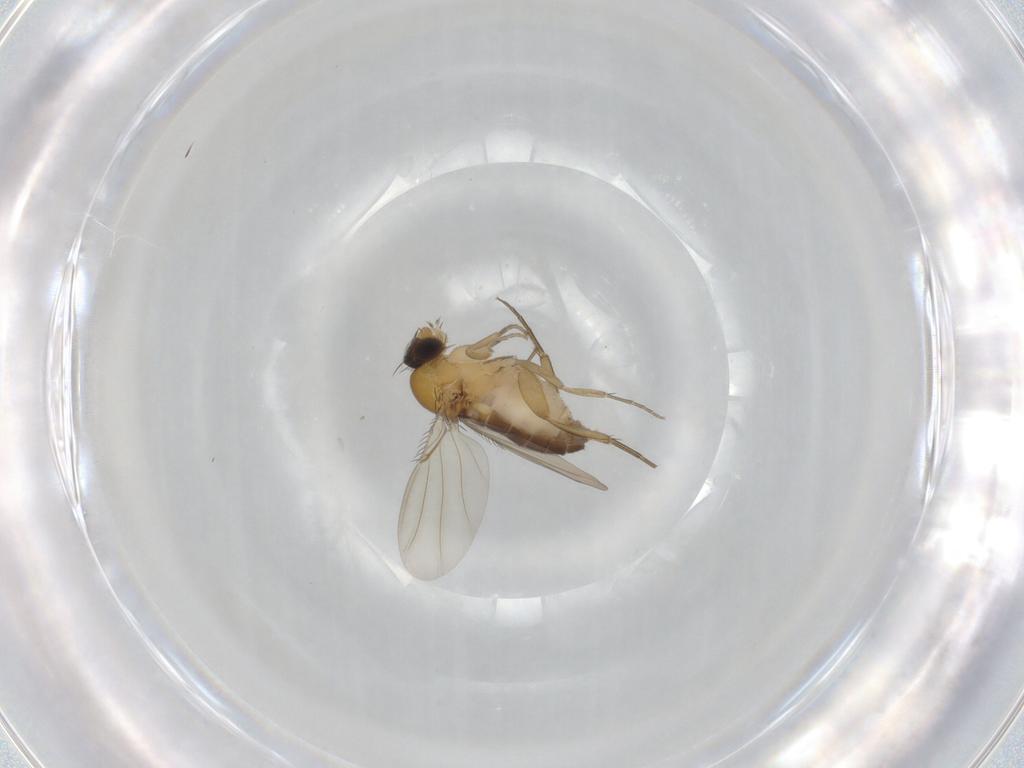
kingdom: Animalia
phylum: Arthropoda
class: Insecta
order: Diptera
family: Phoridae
